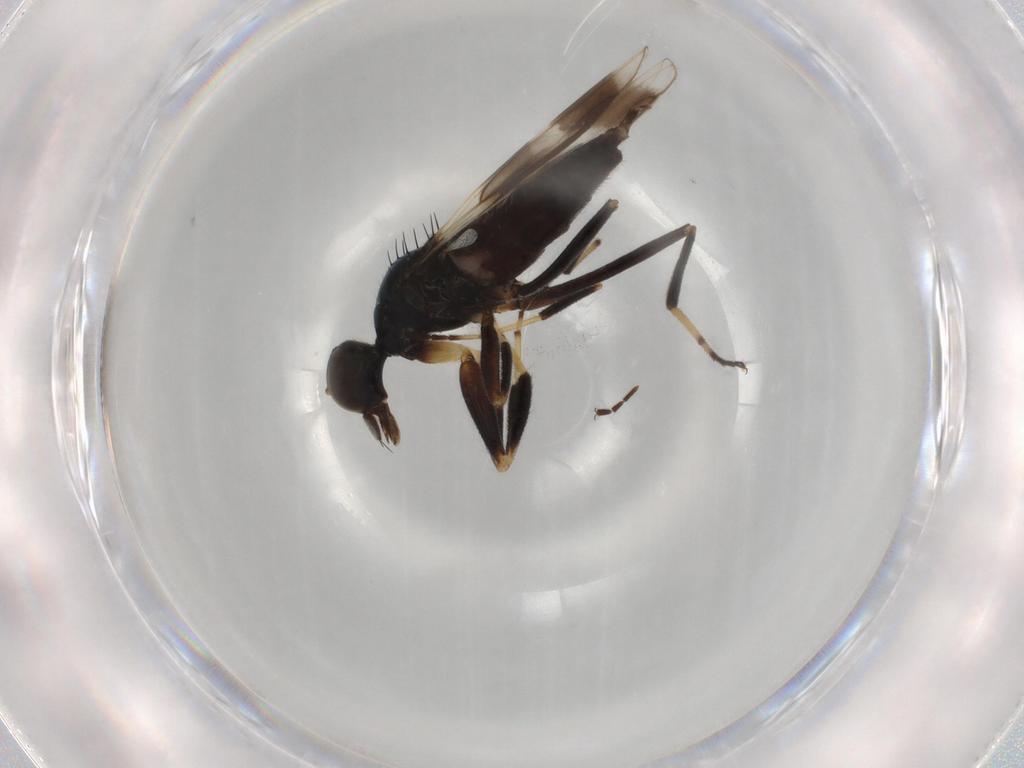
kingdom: Animalia
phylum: Arthropoda
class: Insecta
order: Diptera
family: Hybotidae
